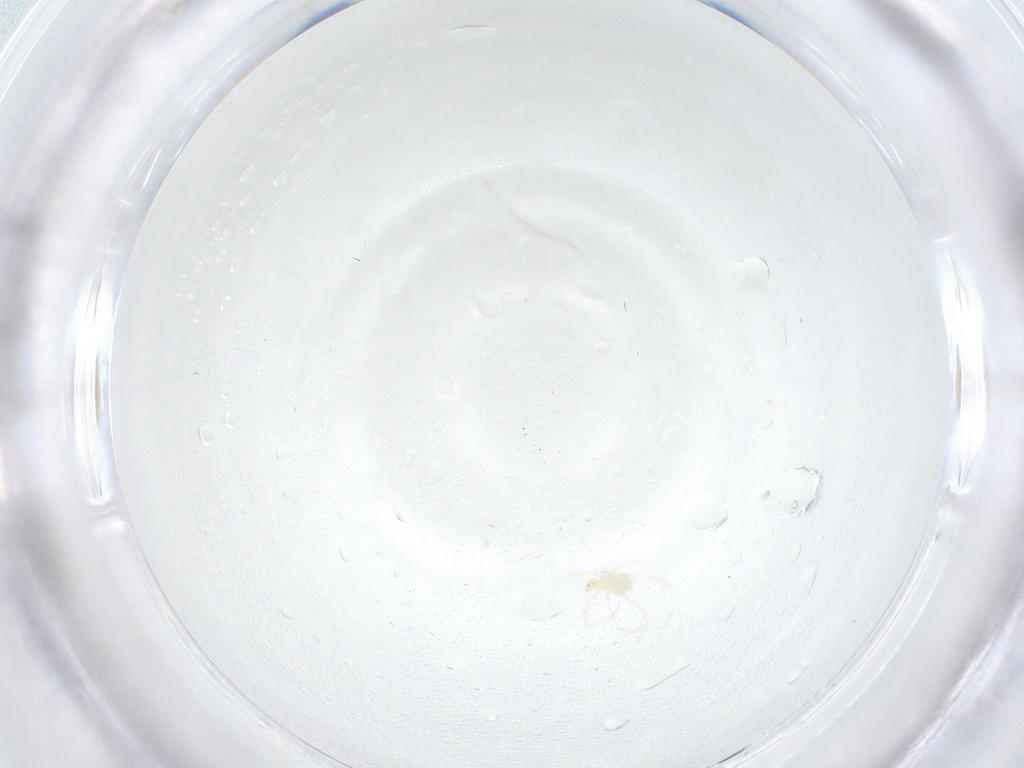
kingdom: Animalia
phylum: Arthropoda
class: Arachnida
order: Trombidiformes
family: Erythraeidae
